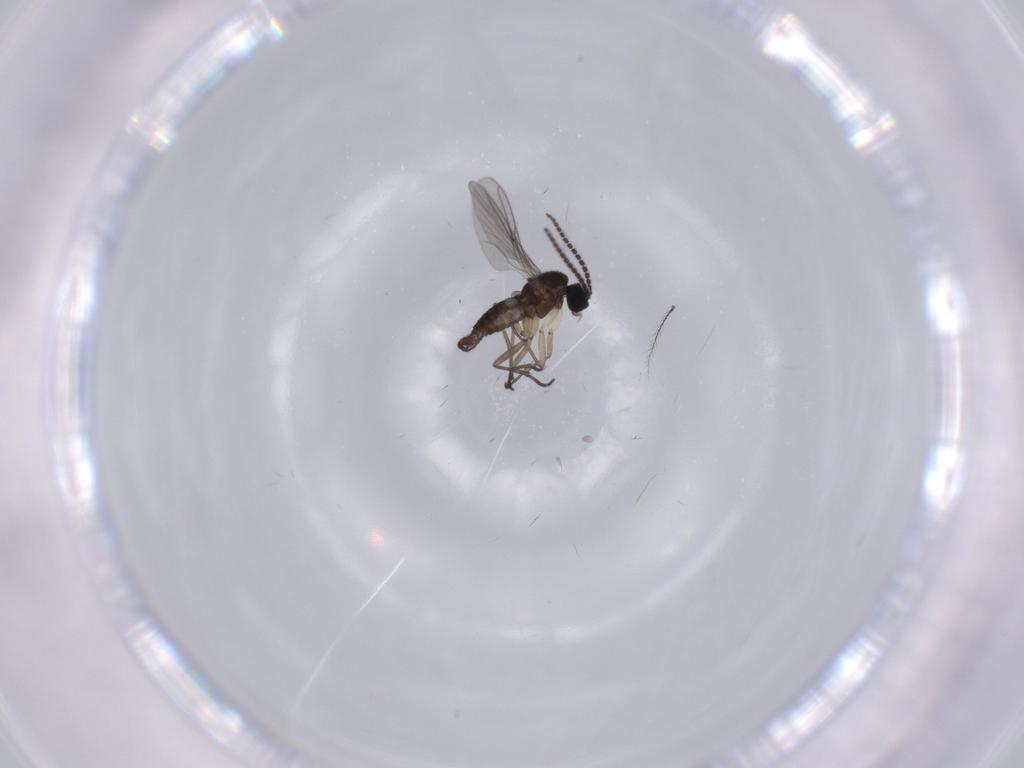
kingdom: Animalia
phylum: Arthropoda
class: Insecta
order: Diptera
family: Sciaridae
